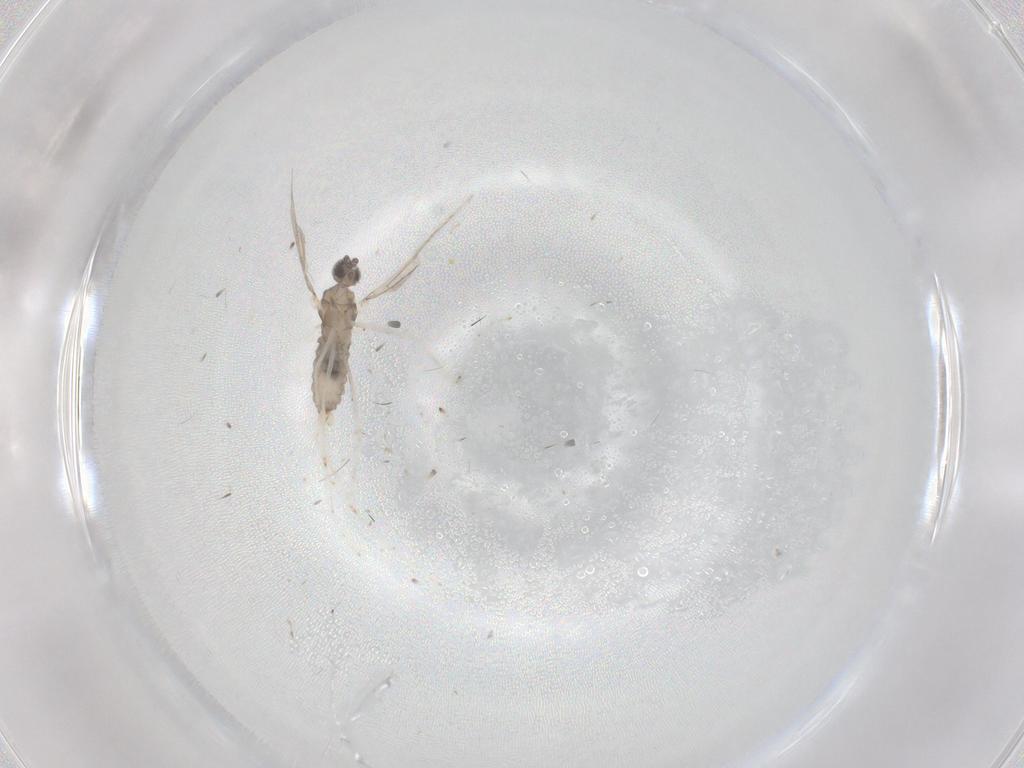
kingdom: Animalia
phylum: Arthropoda
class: Insecta
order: Diptera
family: Cecidomyiidae
